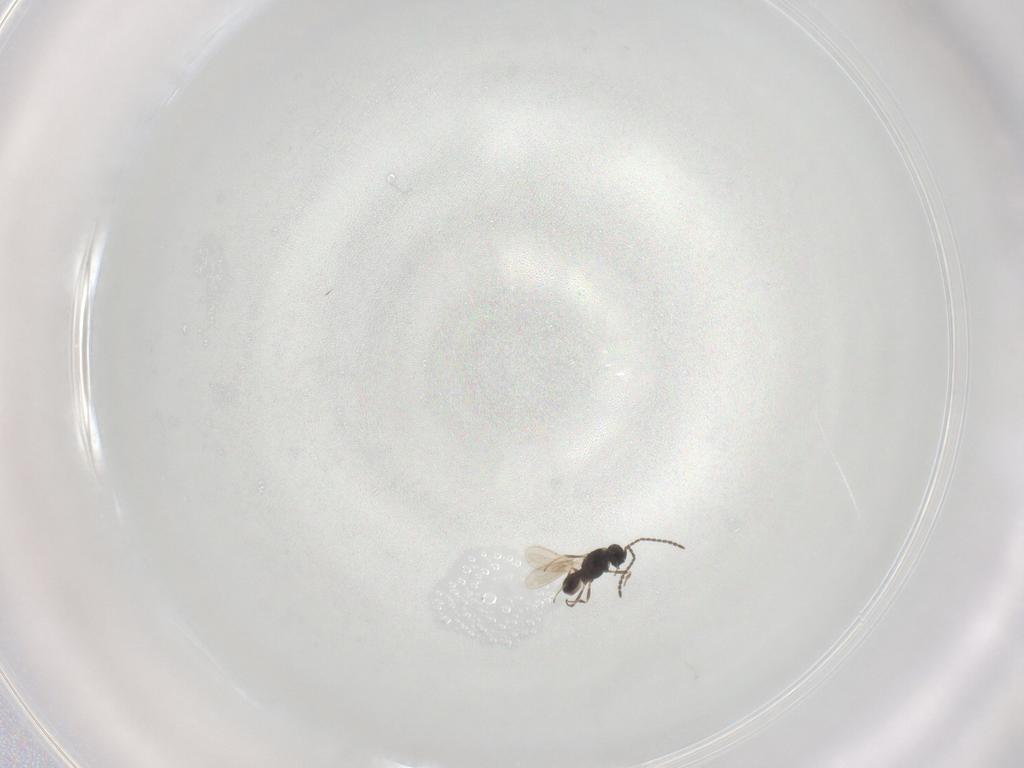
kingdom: Animalia
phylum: Arthropoda
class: Insecta
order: Hymenoptera
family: Scelionidae
